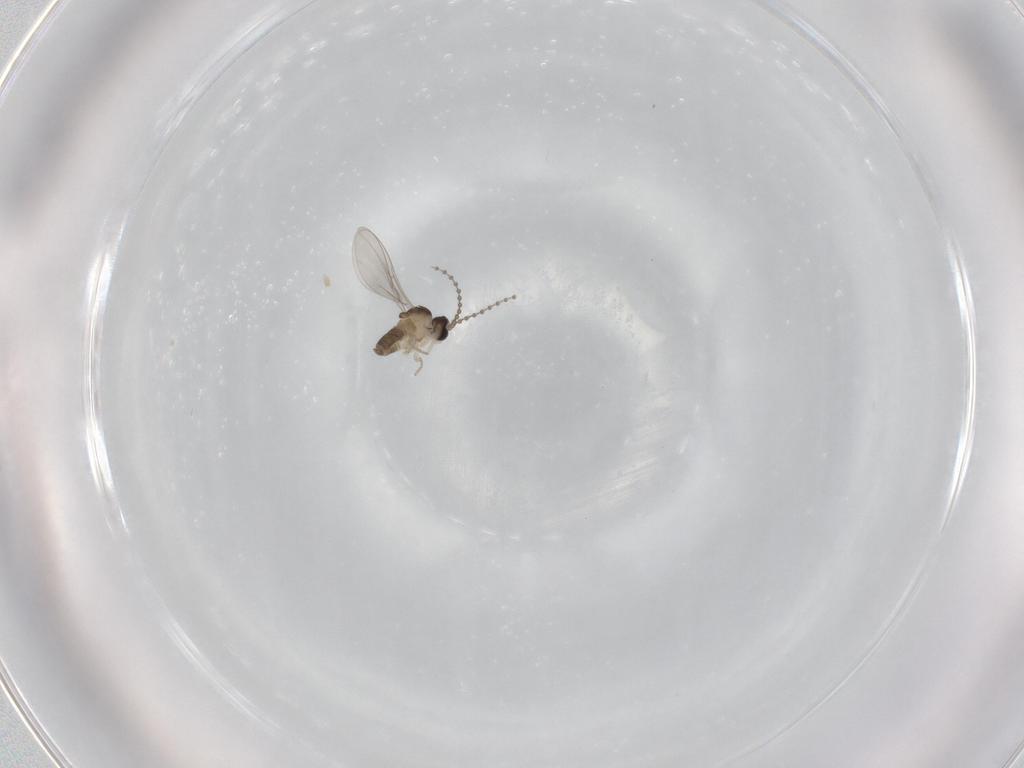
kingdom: Animalia
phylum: Arthropoda
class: Insecta
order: Diptera
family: Cecidomyiidae
